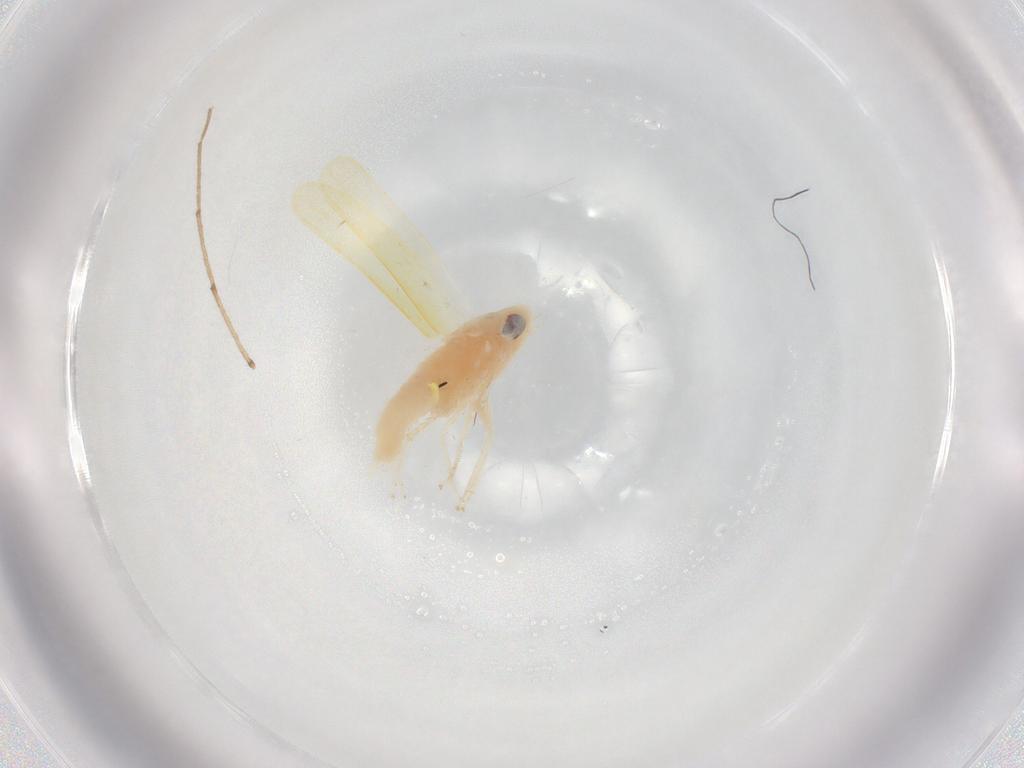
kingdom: Animalia
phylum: Arthropoda
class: Insecta
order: Hemiptera
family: Cicadellidae
